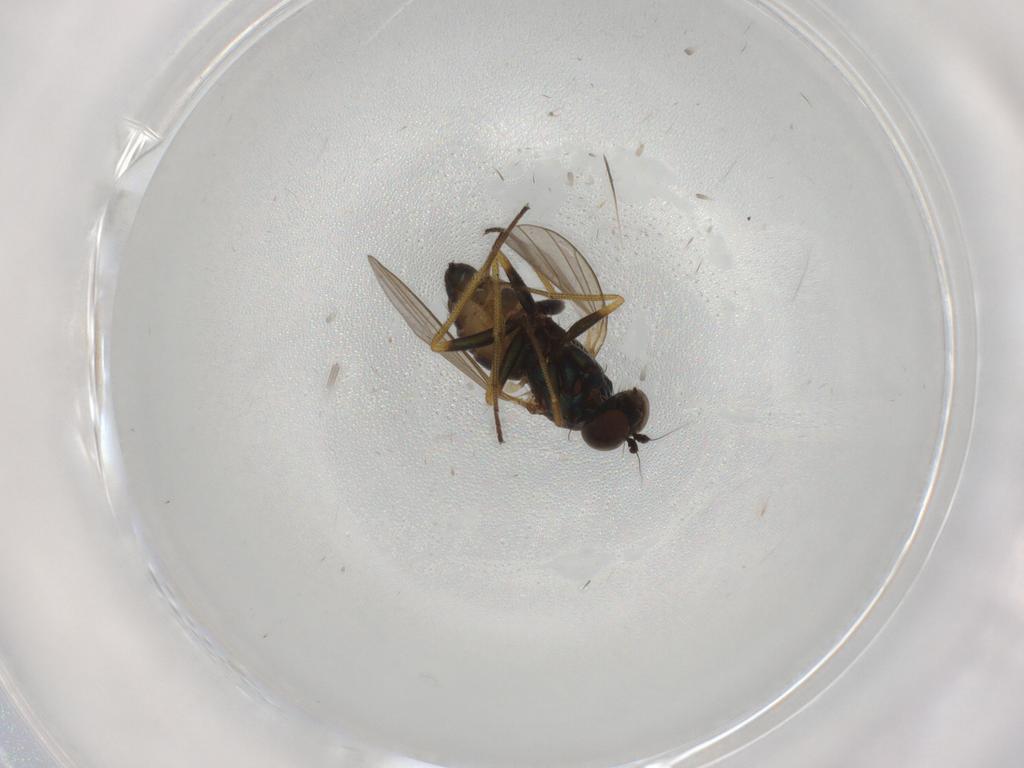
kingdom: Animalia
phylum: Arthropoda
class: Insecta
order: Diptera
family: Dolichopodidae
